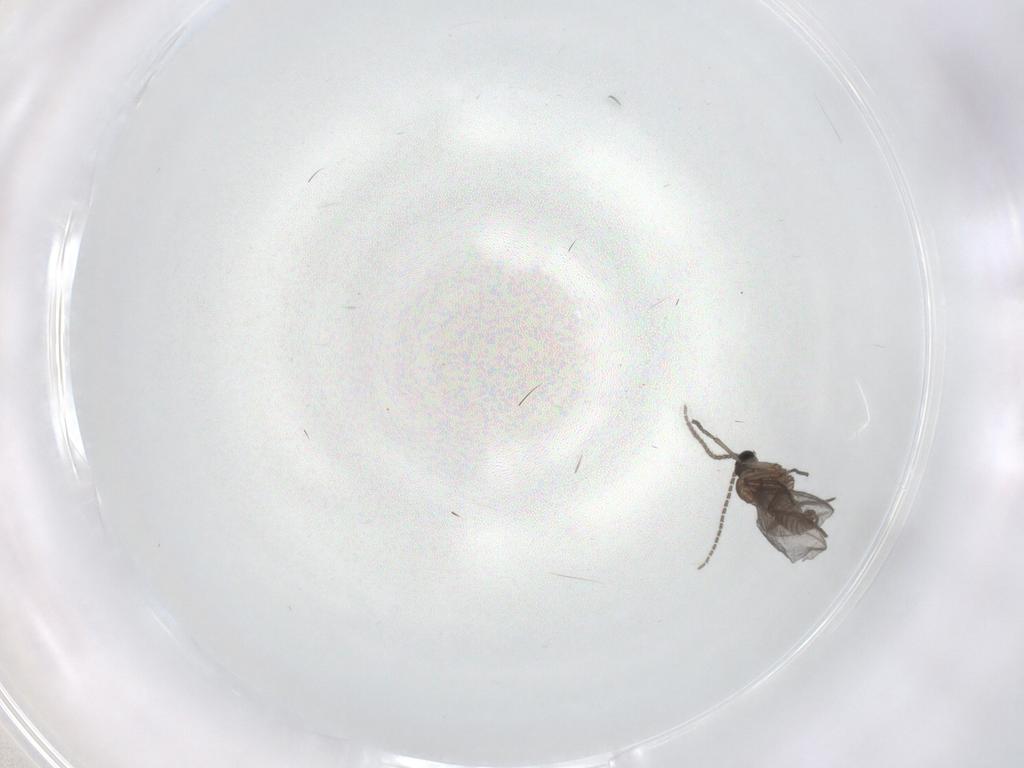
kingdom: Animalia
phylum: Arthropoda
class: Insecta
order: Diptera
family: Sciaridae
